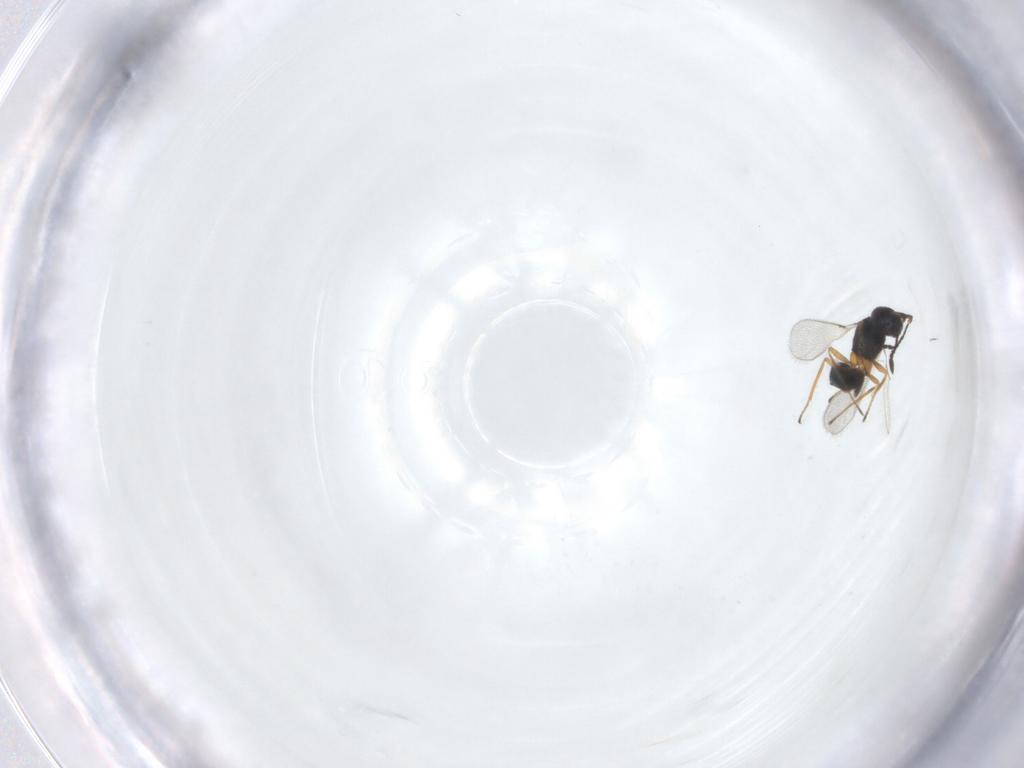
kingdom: Animalia
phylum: Arthropoda
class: Insecta
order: Hymenoptera
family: Mymaridae
